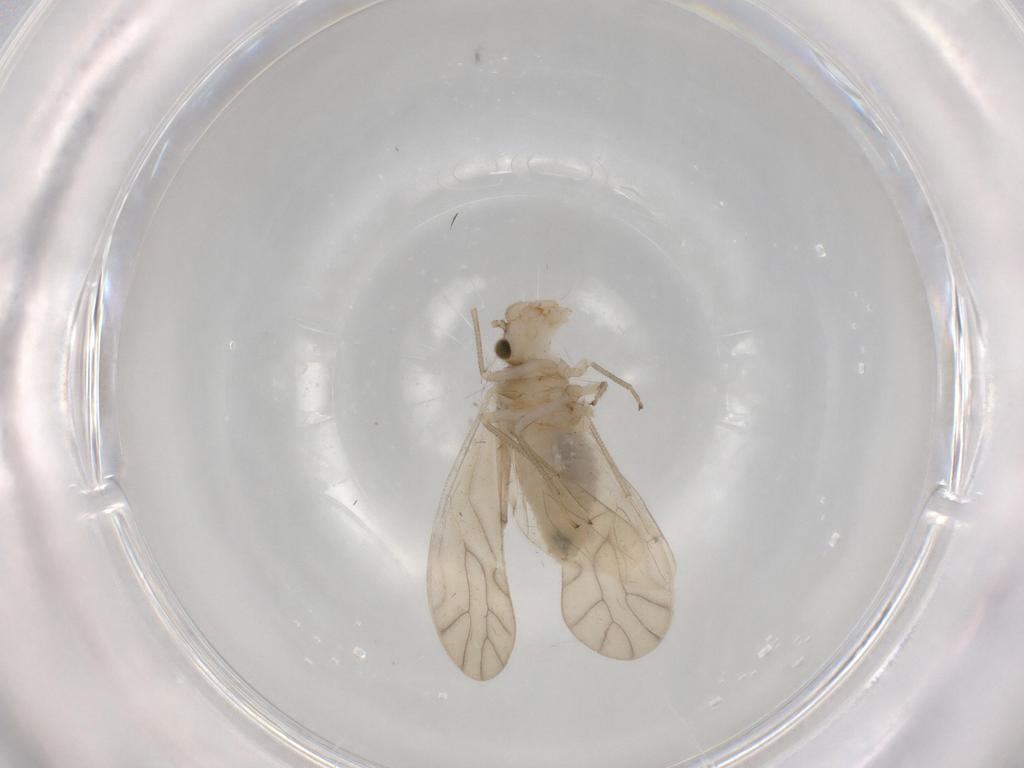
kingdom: Animalia
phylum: Arthropoda
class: Insecta
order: Psocodea
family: Caeciliusidae
